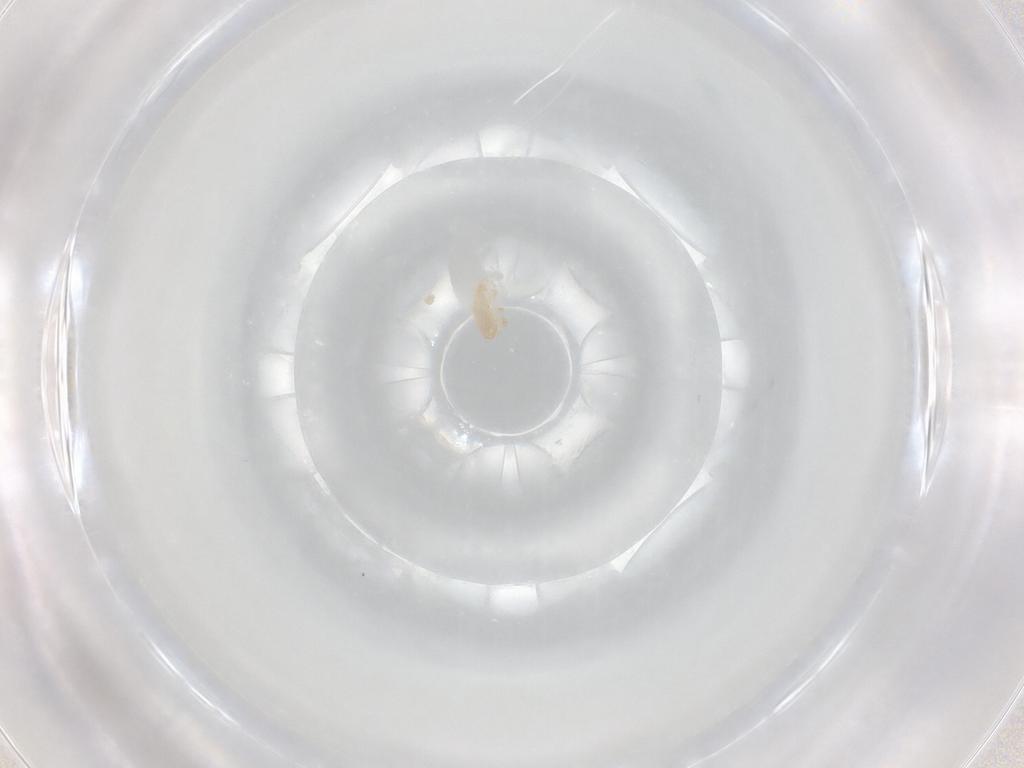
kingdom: Animalia
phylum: Arthropoda
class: Arachnida
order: Mesostigmata
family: Halolaelapidae
